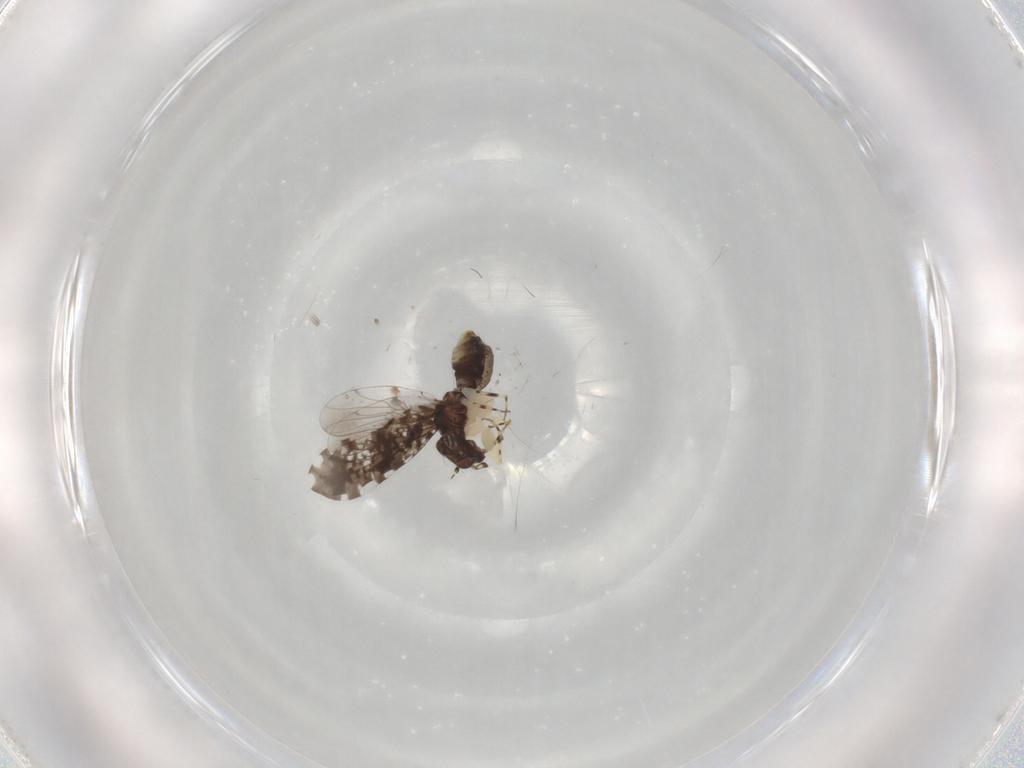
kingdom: Animalia
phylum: Arthropoda
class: Insecta
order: Psocodea
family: Psoquillidae
